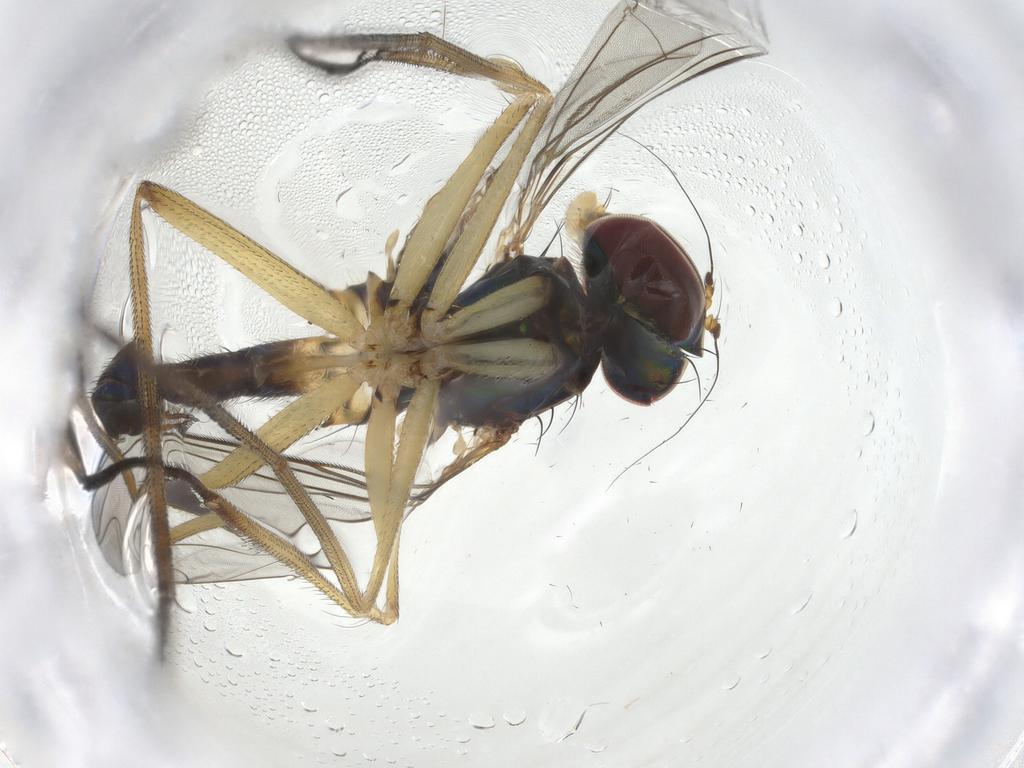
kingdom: Animalia
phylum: Arthropoda
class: Insecta
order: Diptera
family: Dolichopodidae
